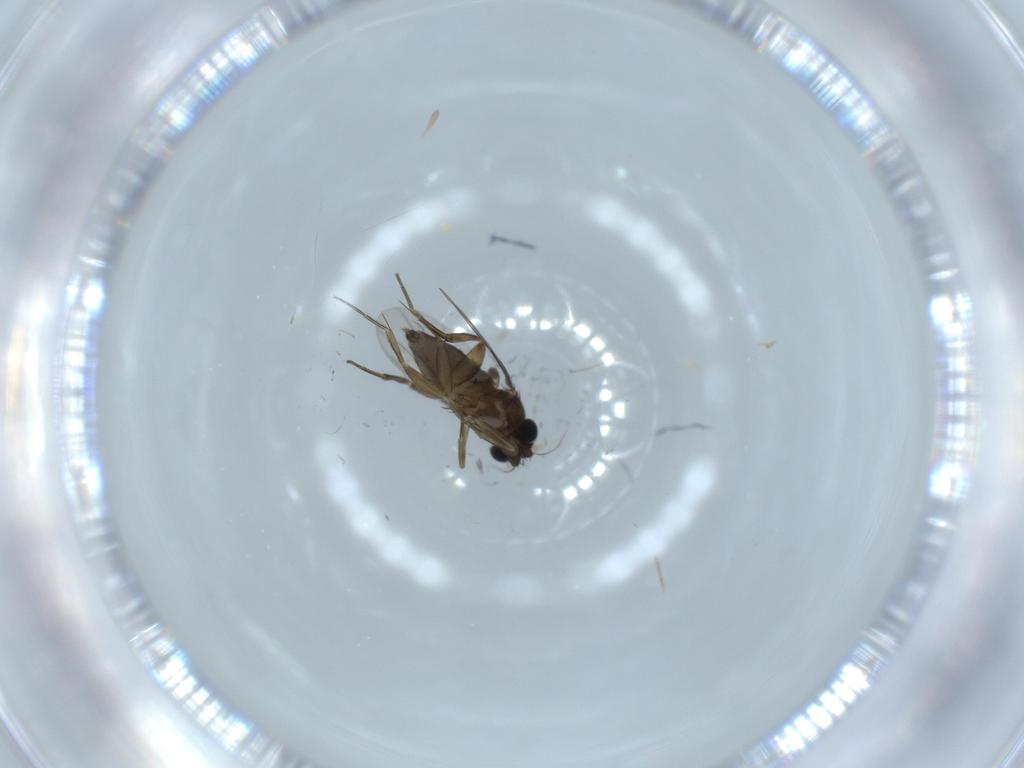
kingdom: Animalia
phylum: Arthropoda
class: Insecta
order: Diptera
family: Phoridae
